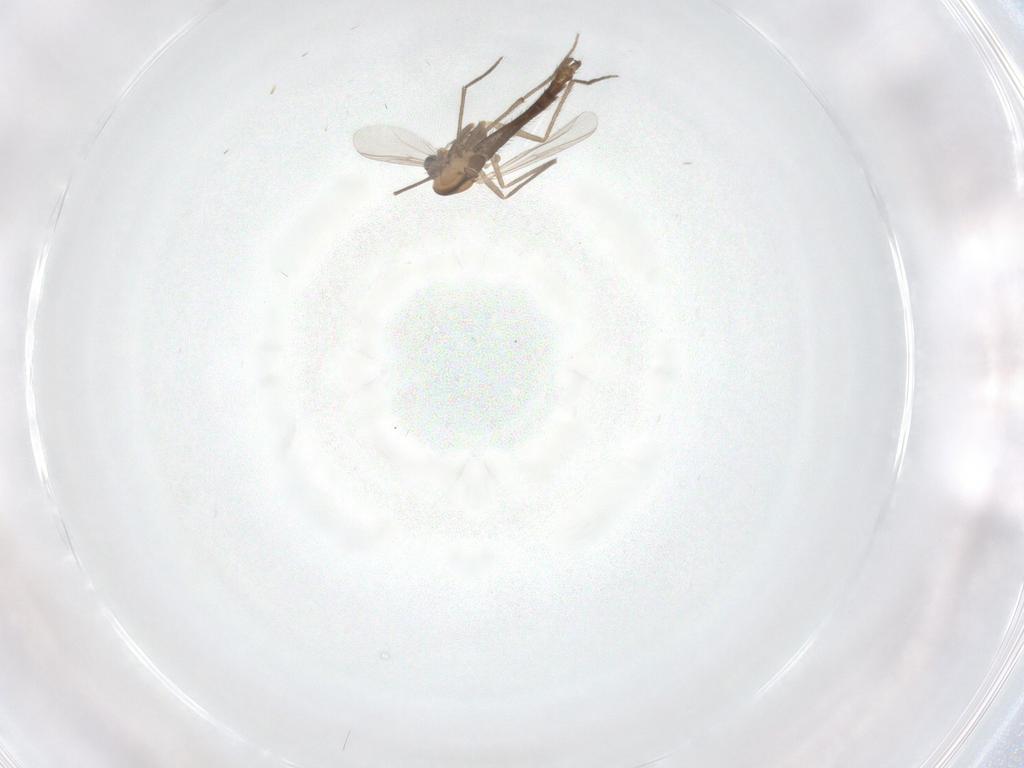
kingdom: Animalia
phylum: Arthropoda
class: Insecta
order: Diptera
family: Chironomidae
